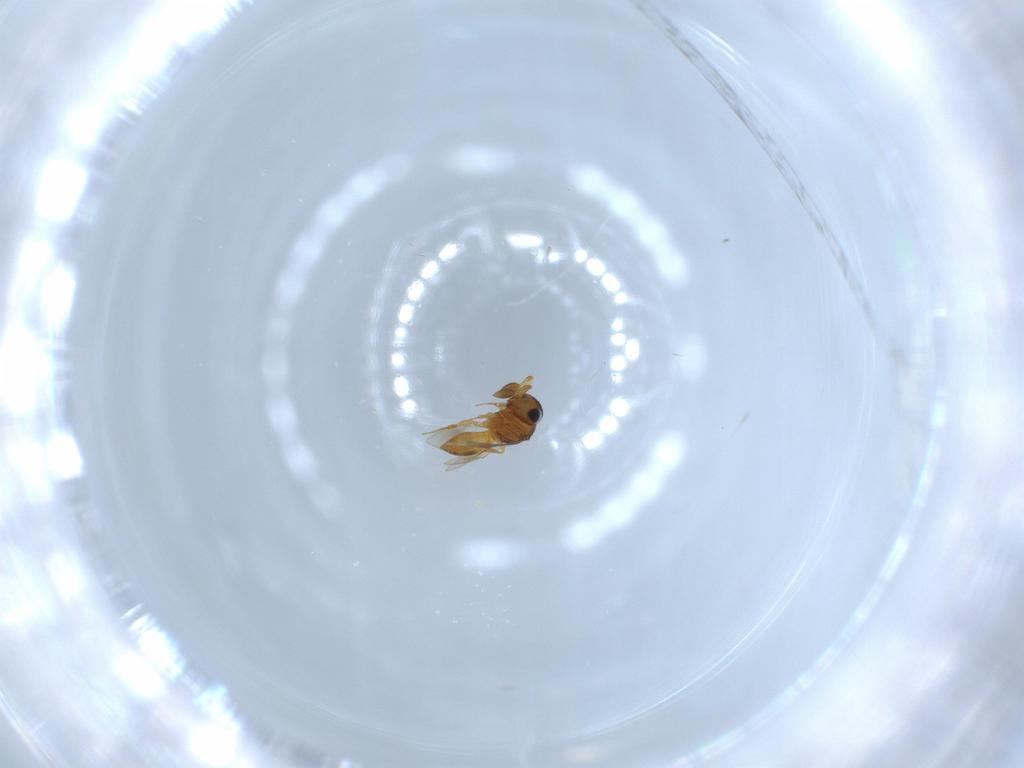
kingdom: Animalia
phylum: Arthropoda
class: Insecta
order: Hymenoptera
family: Scelionidae
